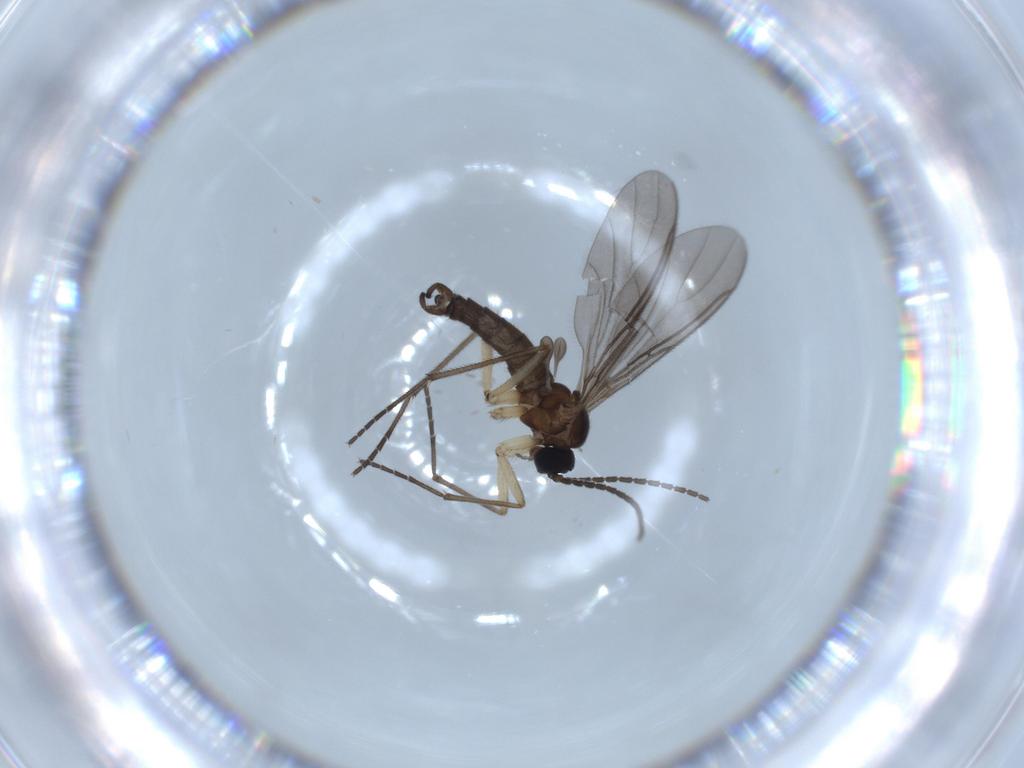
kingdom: Animalia
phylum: Arthropoda
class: Insecta
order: Diptera
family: Sciaridae
